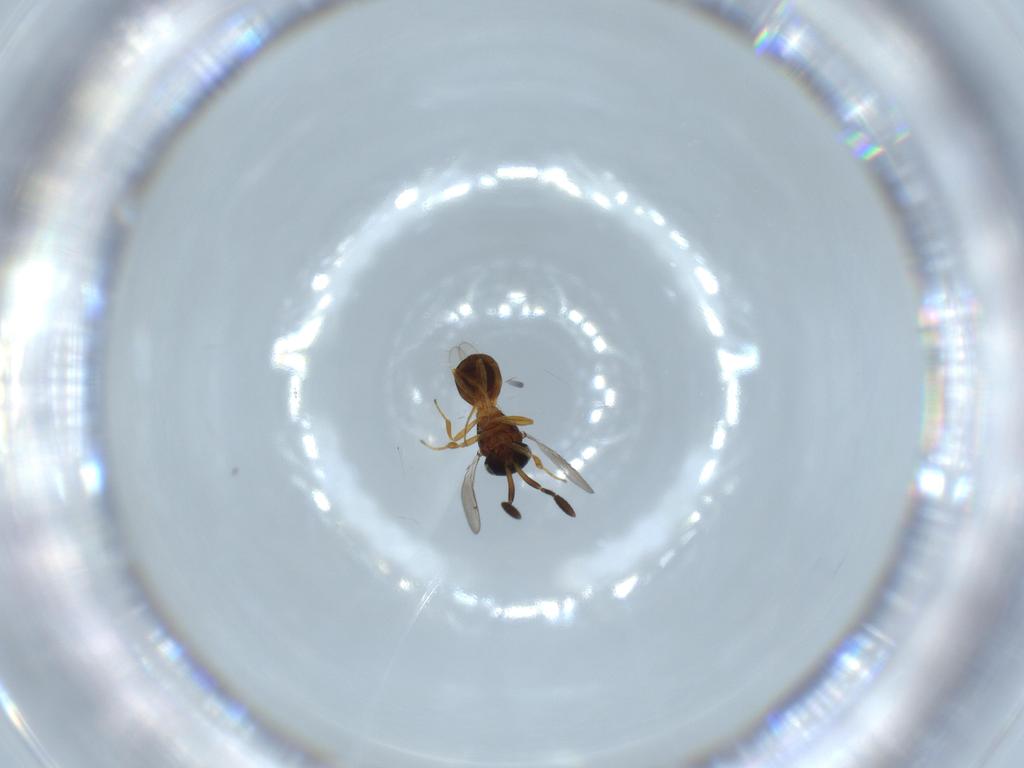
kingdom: Animalia
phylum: Arthropoda
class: Insecta
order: Hymenoptera
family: Scelionidae
